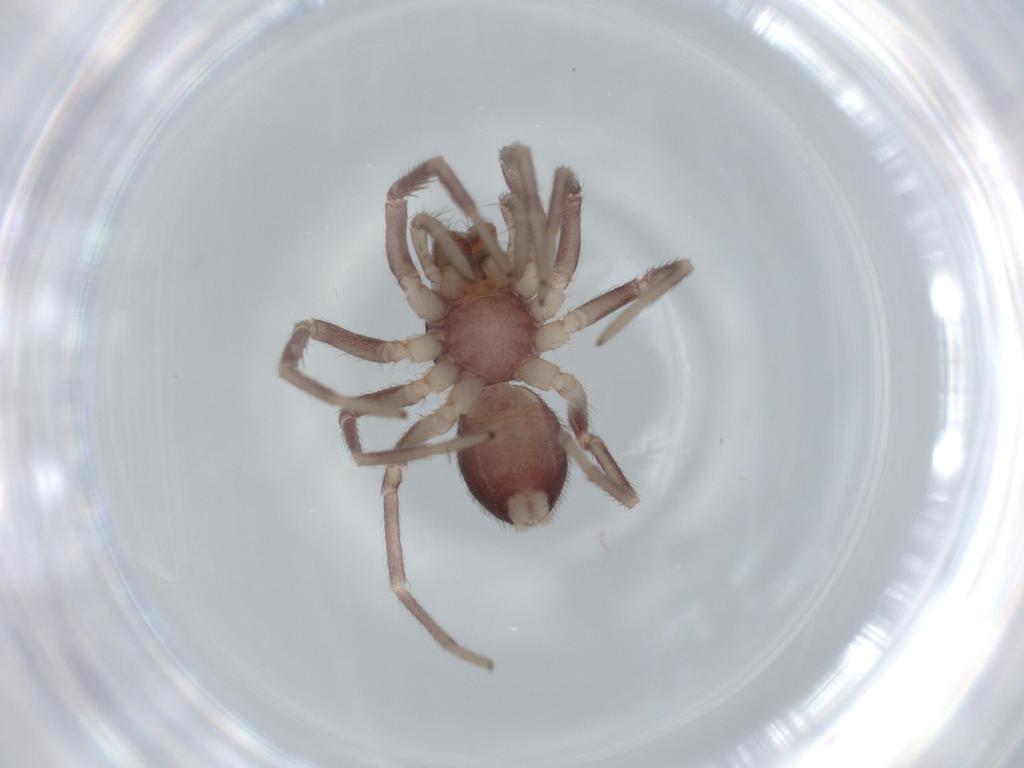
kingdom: Animalia
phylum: Arthropoda
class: Arachnida
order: Araneae
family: Corinnidae
